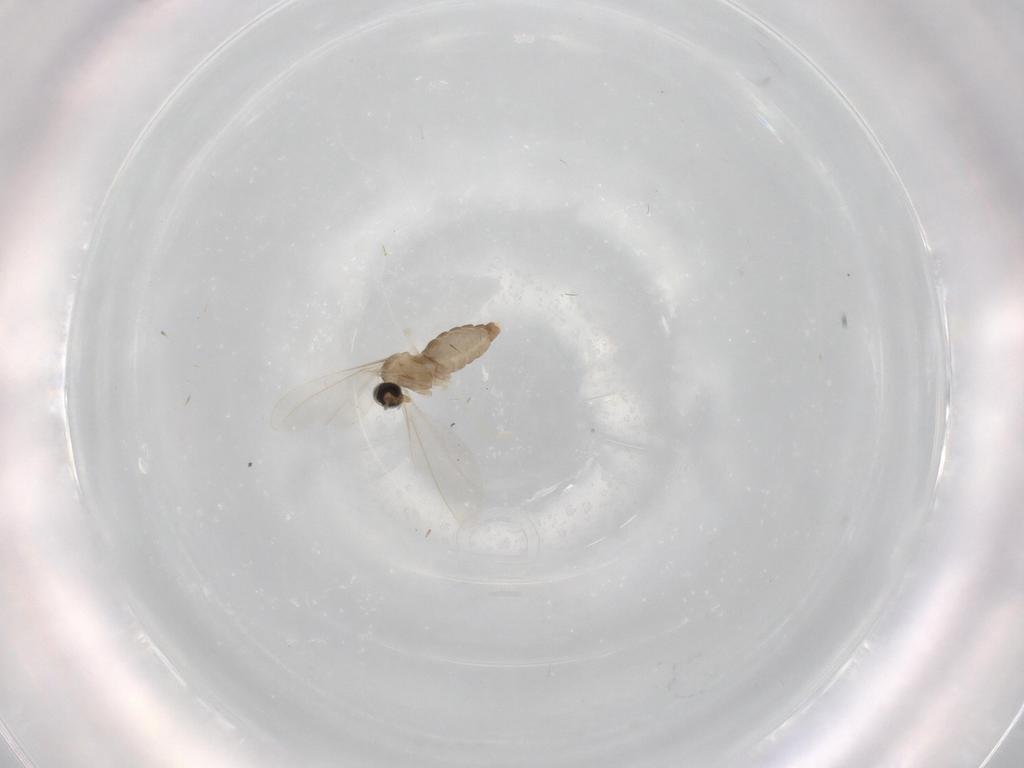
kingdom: Animalia
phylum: Arthropoda
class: Insecta
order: Diptera
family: Cecidomyiidae
